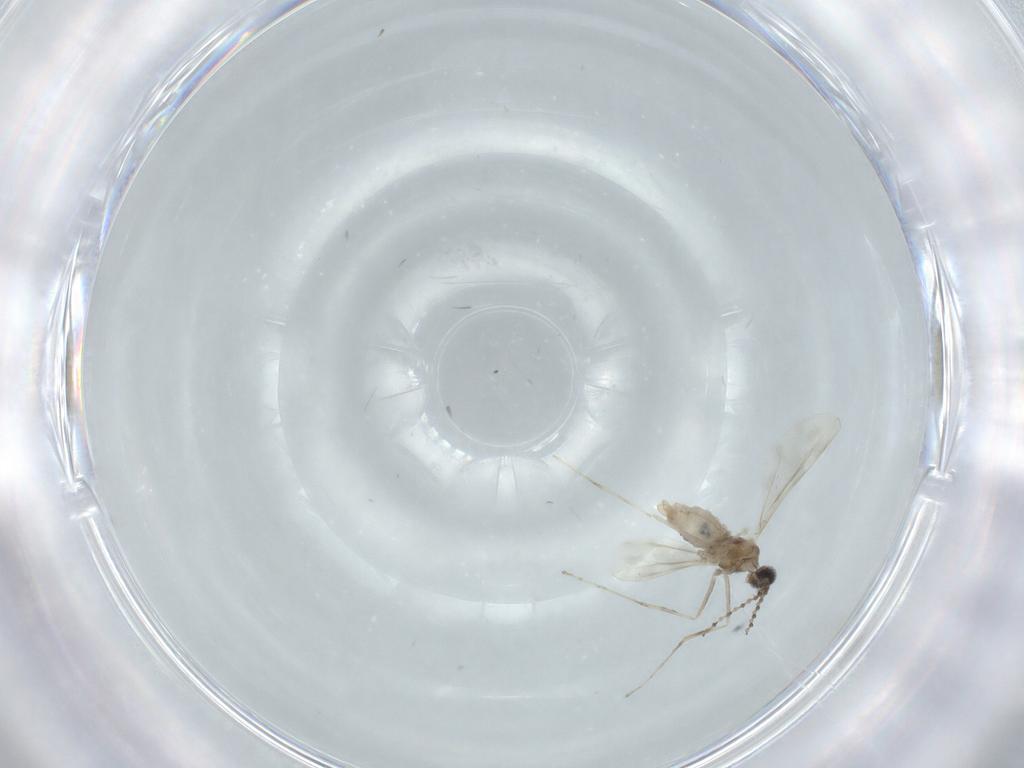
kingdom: Animalia
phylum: Arthropoda
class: Insecta
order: Diptera
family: Cecidomyiidae
